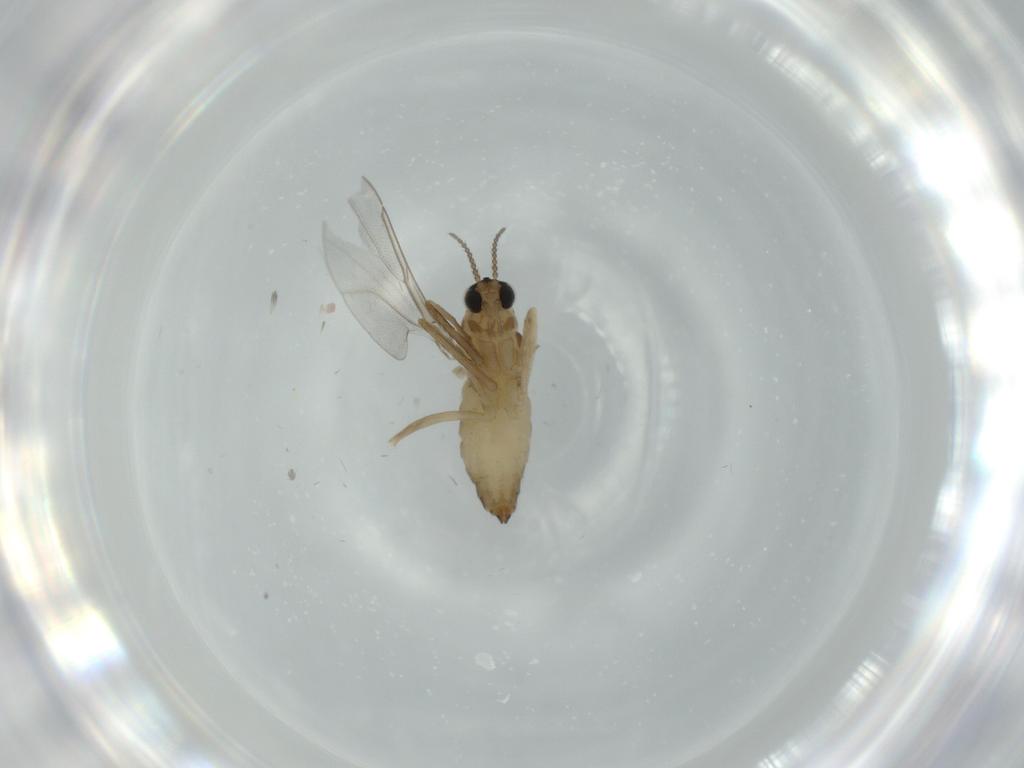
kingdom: Animalia
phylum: Arthropoda
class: Insecta
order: Diptera
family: Cecidomyiidae
